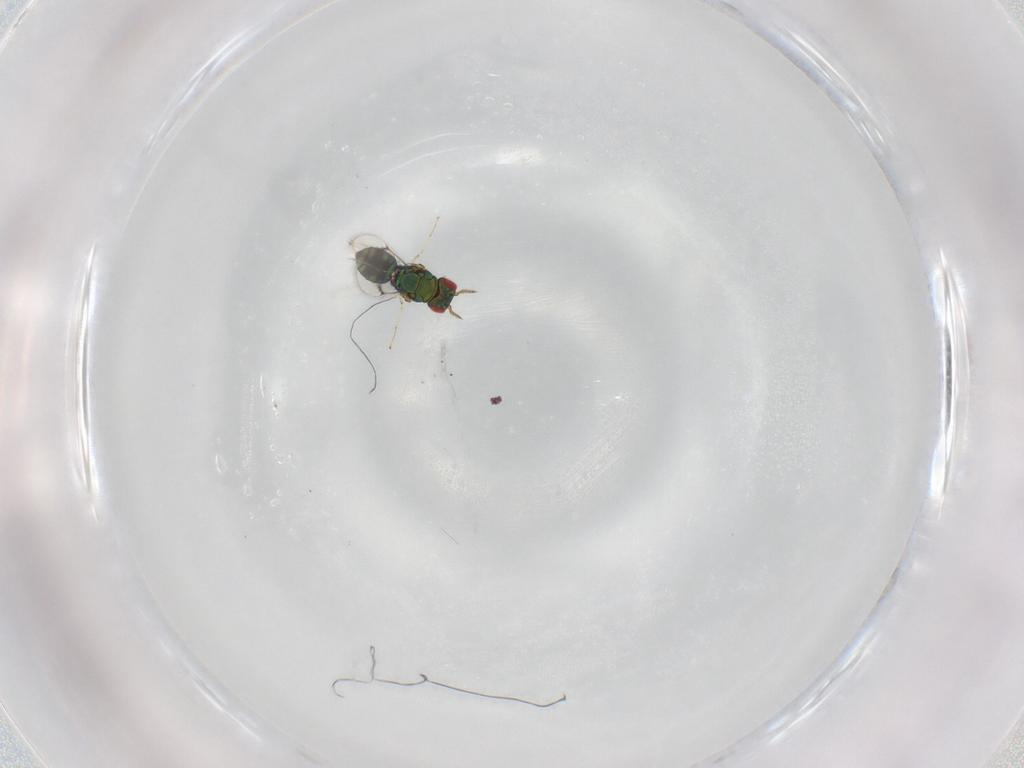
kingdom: Animalia
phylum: Arthropoda
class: Insecta
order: Hymenoptera
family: Eulophidae
